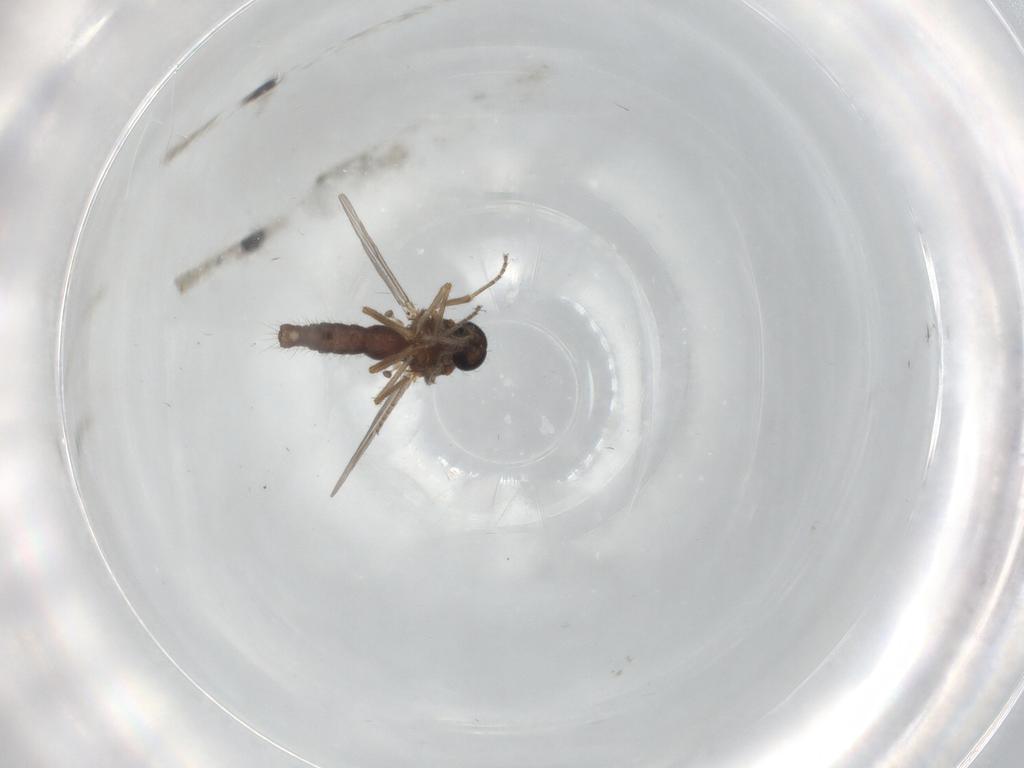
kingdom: Animalia
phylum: Arthropoda
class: Insecta
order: Diptera
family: Ceratopogonidae
